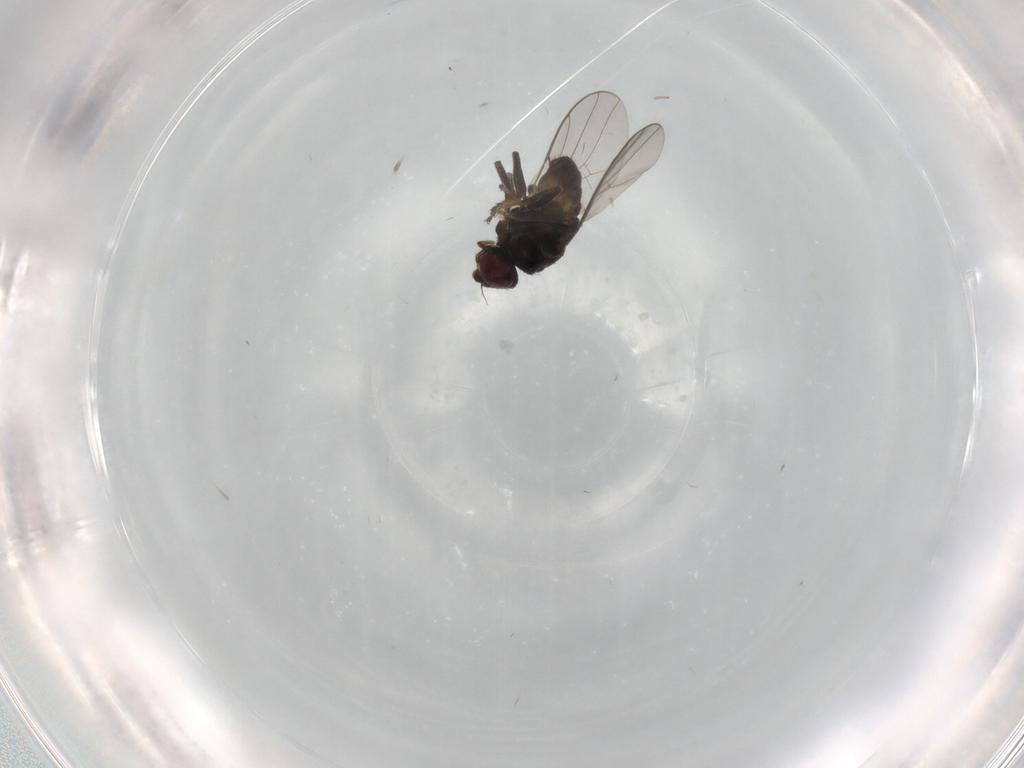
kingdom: Animalia
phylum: Arthropoda
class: Insecta
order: Diptera
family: Chloropidae
